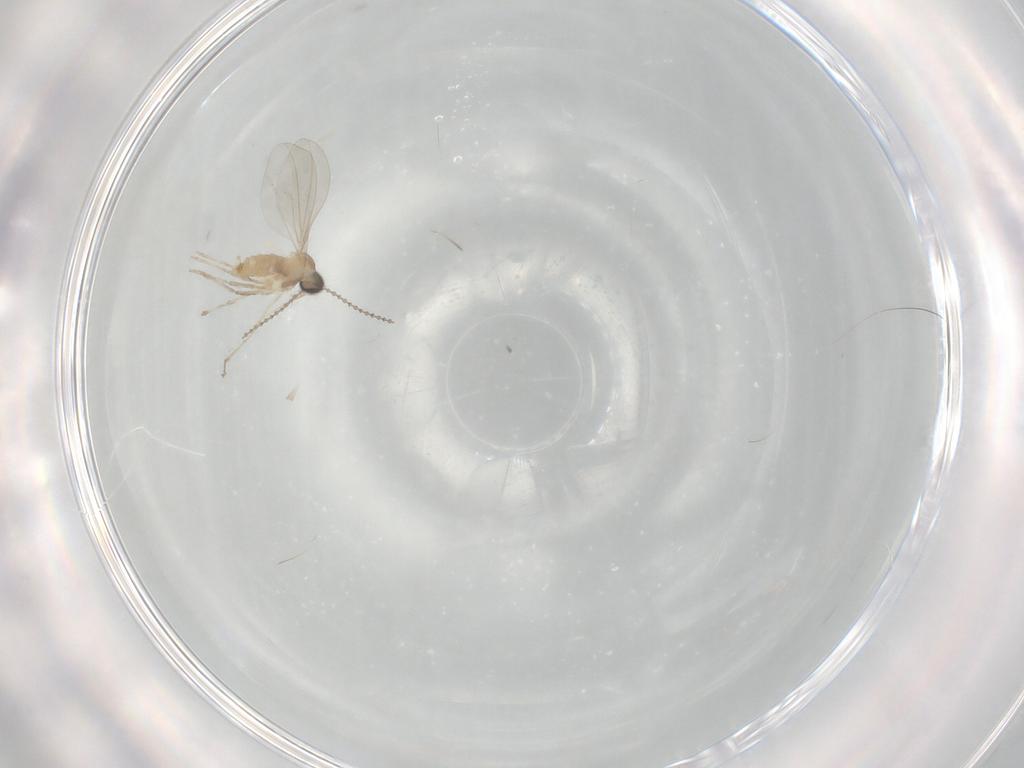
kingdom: Animalia
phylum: Arthropoda
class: Insecta
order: Diptera
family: Cecidomyiidae
